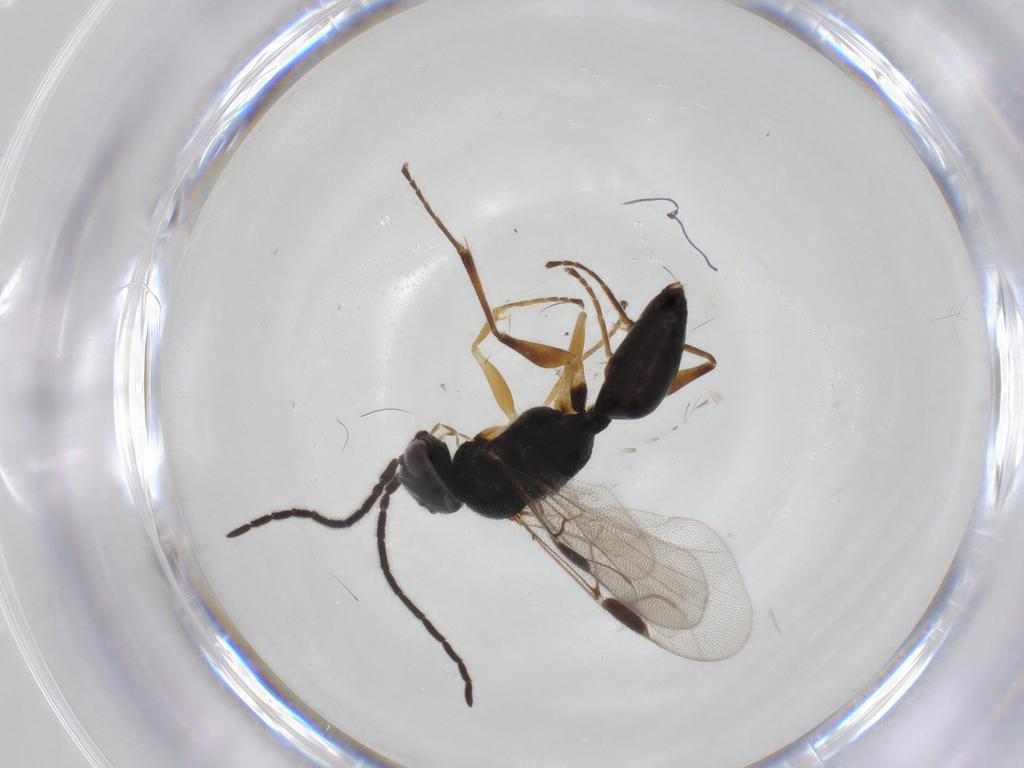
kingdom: Animalia
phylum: Arthropoda
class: Insecta
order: Hymenoptera
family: Dryinidae
